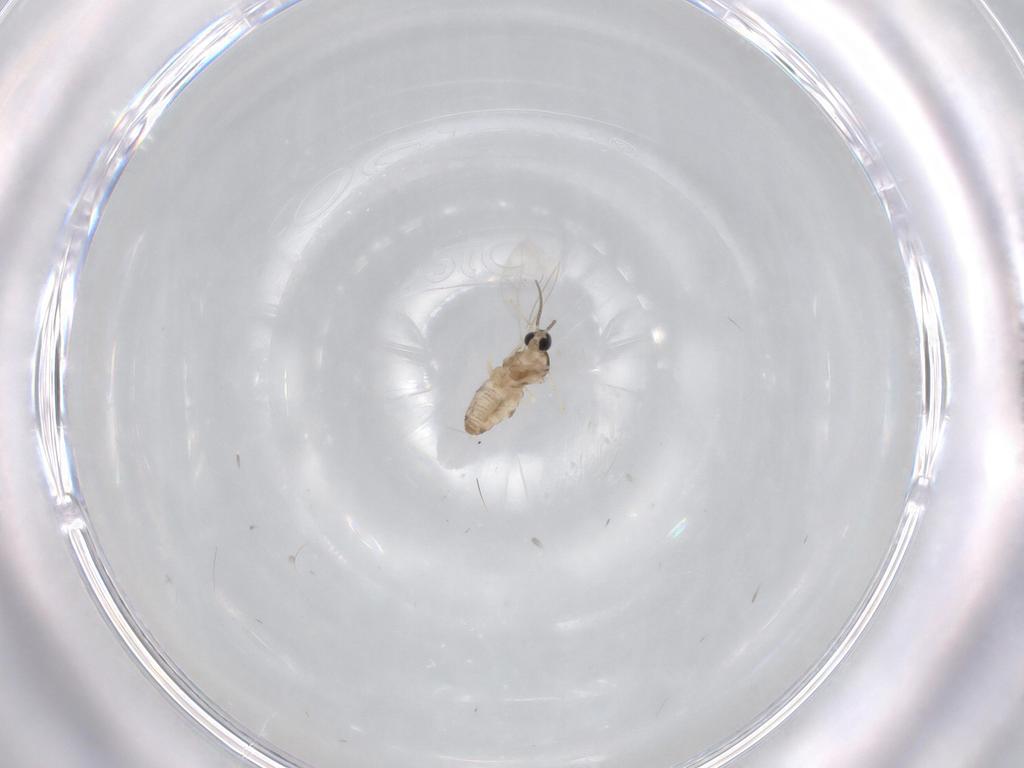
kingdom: Animalia
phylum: Arthropoda
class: Insecta
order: Diptera
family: Cecidomyiidae
